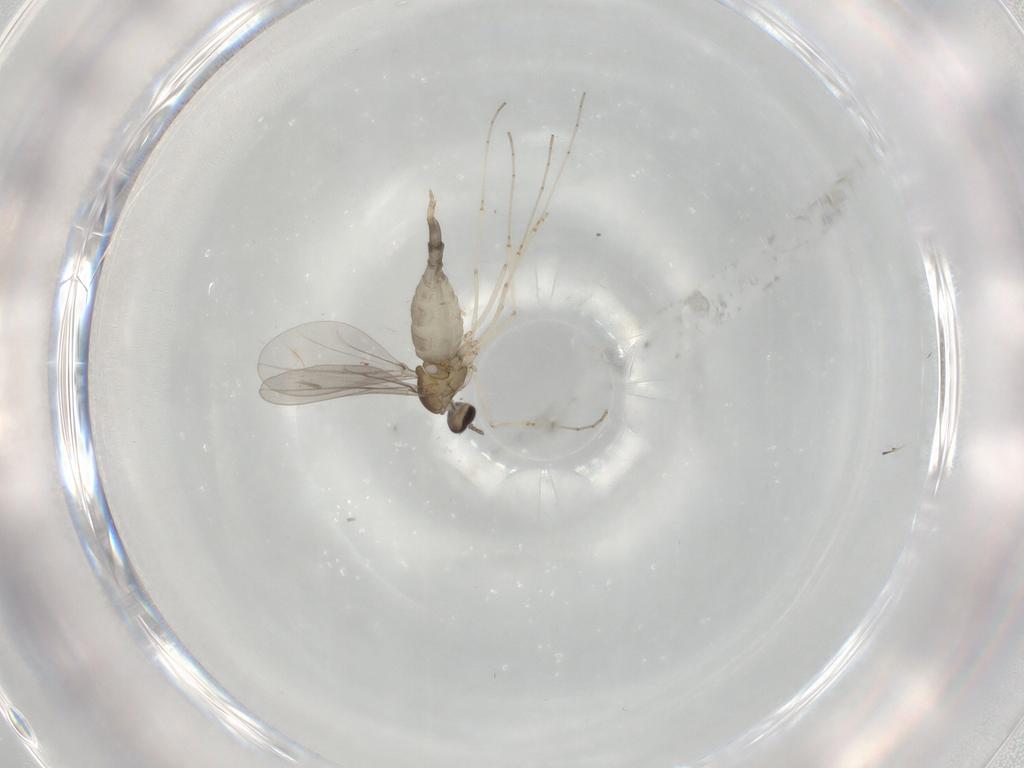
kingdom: Animalia
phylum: Arthropoda
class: Insecta
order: Diptera
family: Cecidomyiidae
